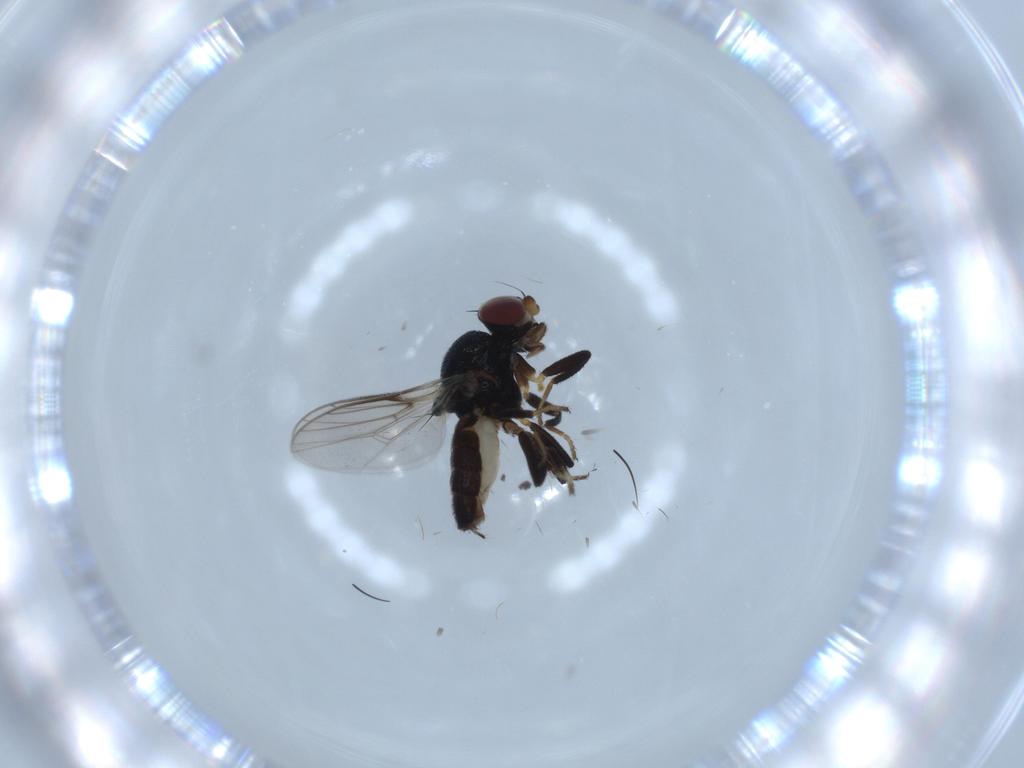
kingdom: Animalia
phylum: Arthropoda
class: Insecta
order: Diptera
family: Chloropidae
